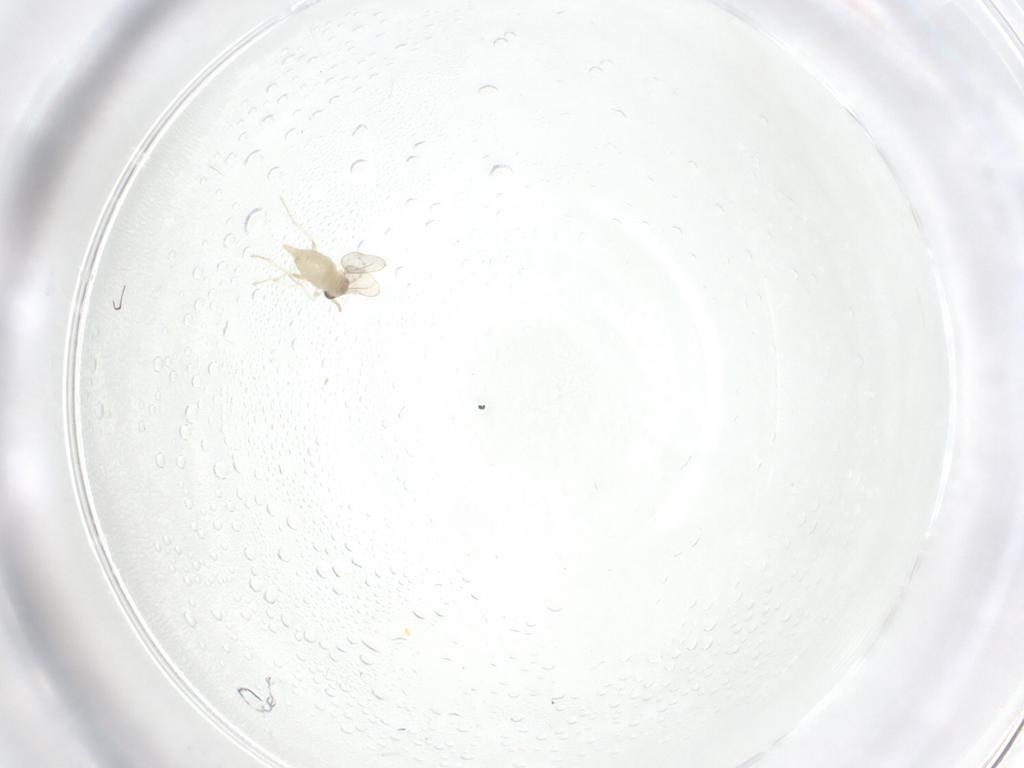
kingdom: Animalia
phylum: Arthropoda
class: Insecta
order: Diptera
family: Cecidomyiidae
